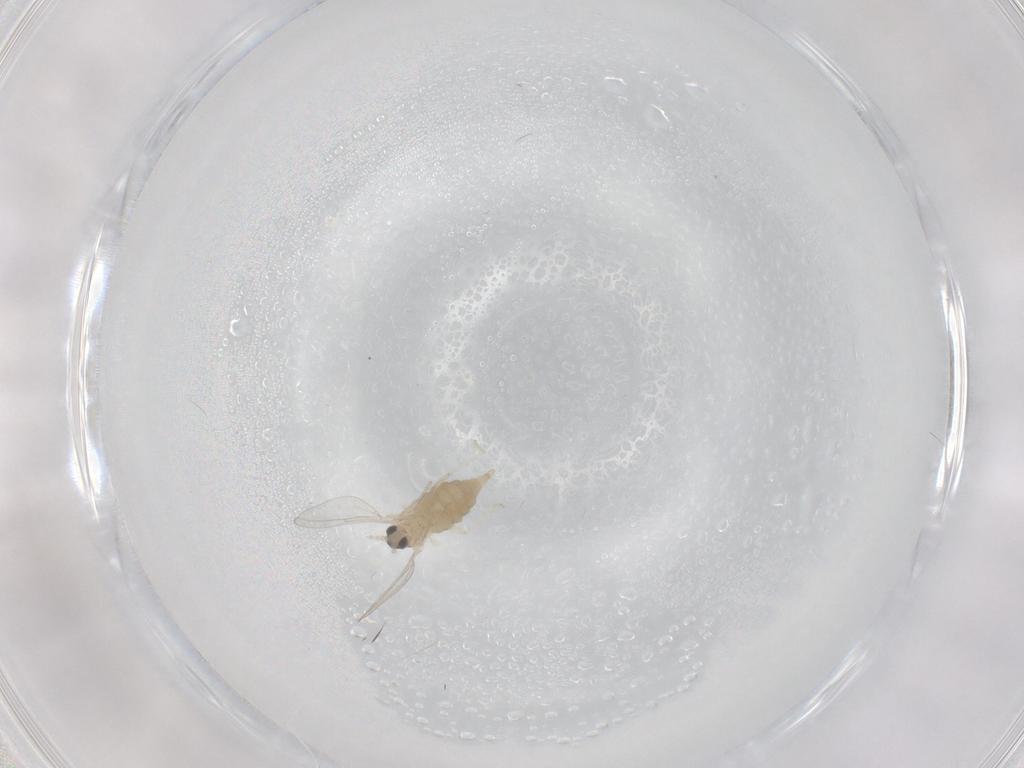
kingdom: Animalia
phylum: Arthropoda
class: Insecta
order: Diptera
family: Cecidomyiidae
